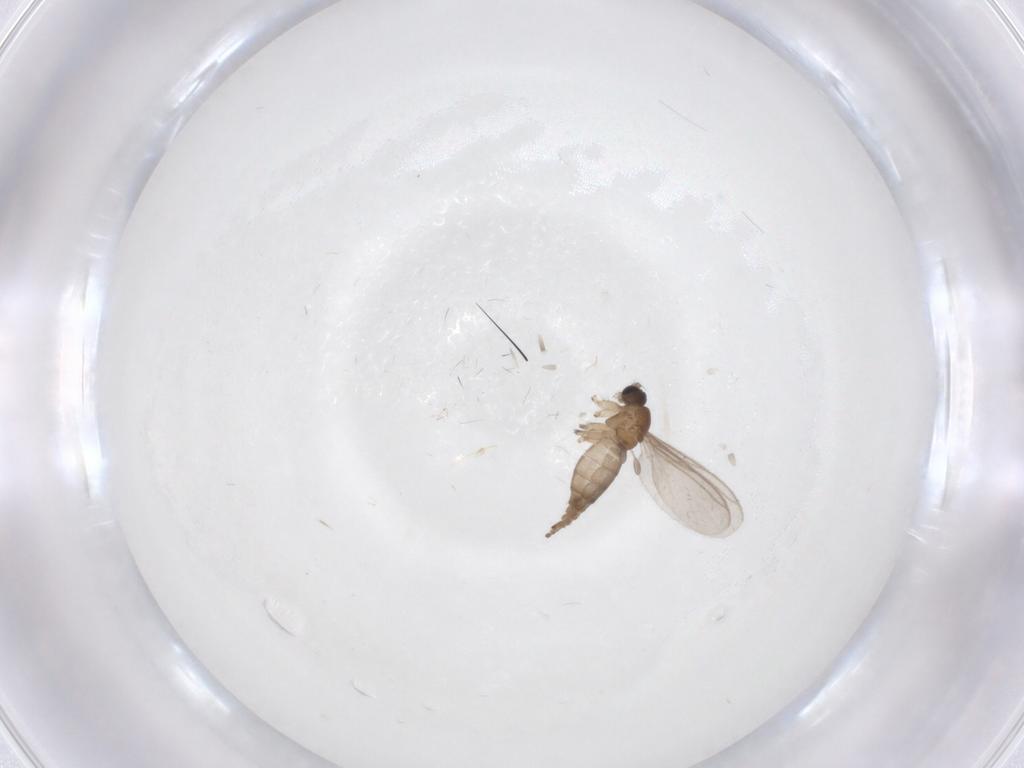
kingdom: Animalia
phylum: Arthropoda
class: Insecta
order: Diptera
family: Sciaridae
